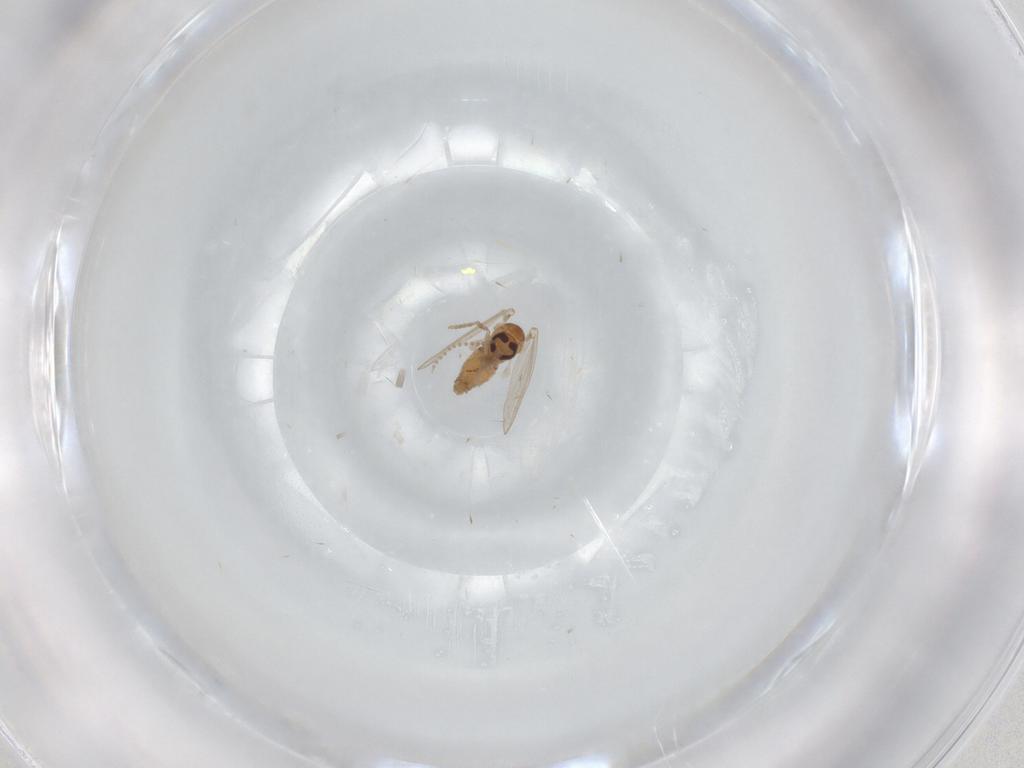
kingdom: Animalia
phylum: Arthropoda
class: Insecta
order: Diptera
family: Psychodidae
